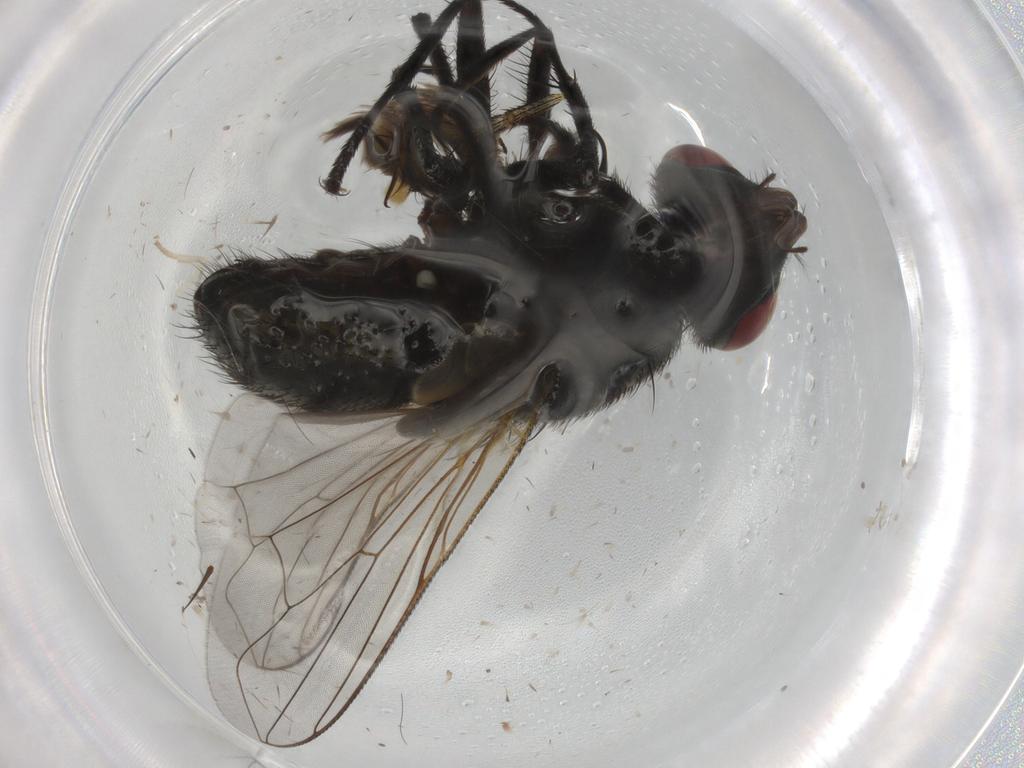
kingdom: Animalia
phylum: Arthropoda
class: Insecta
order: Diptera
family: Muscidae
